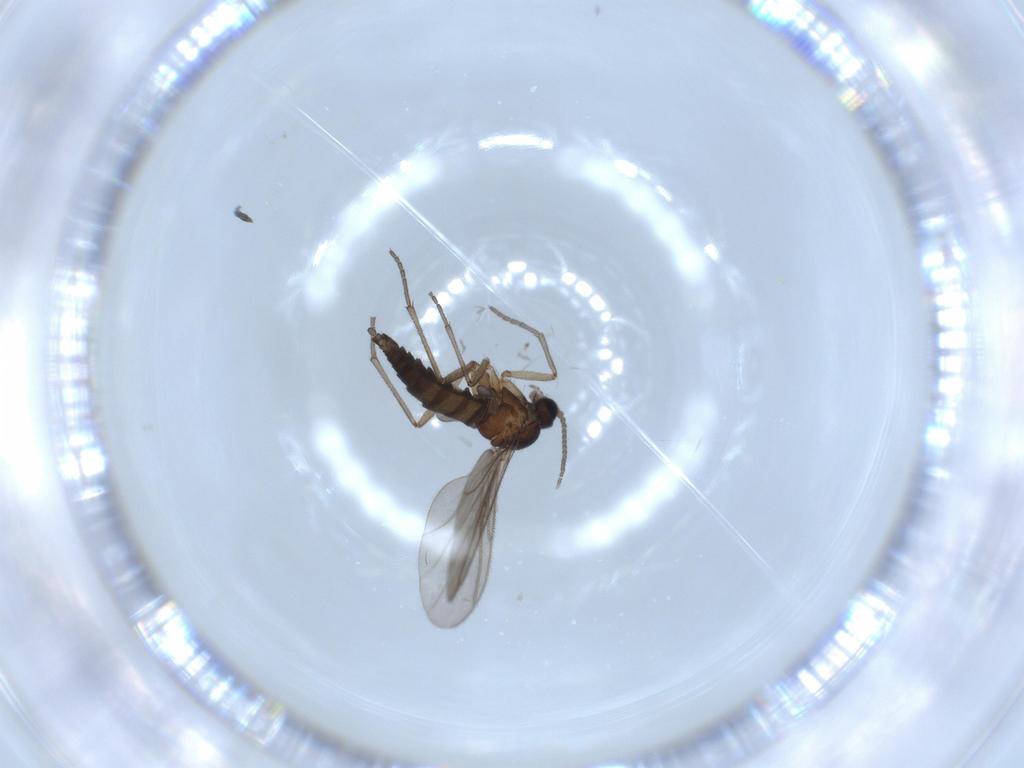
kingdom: Animalia
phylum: Arthropoda
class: Insecta
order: Diptera
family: Sciaridae
